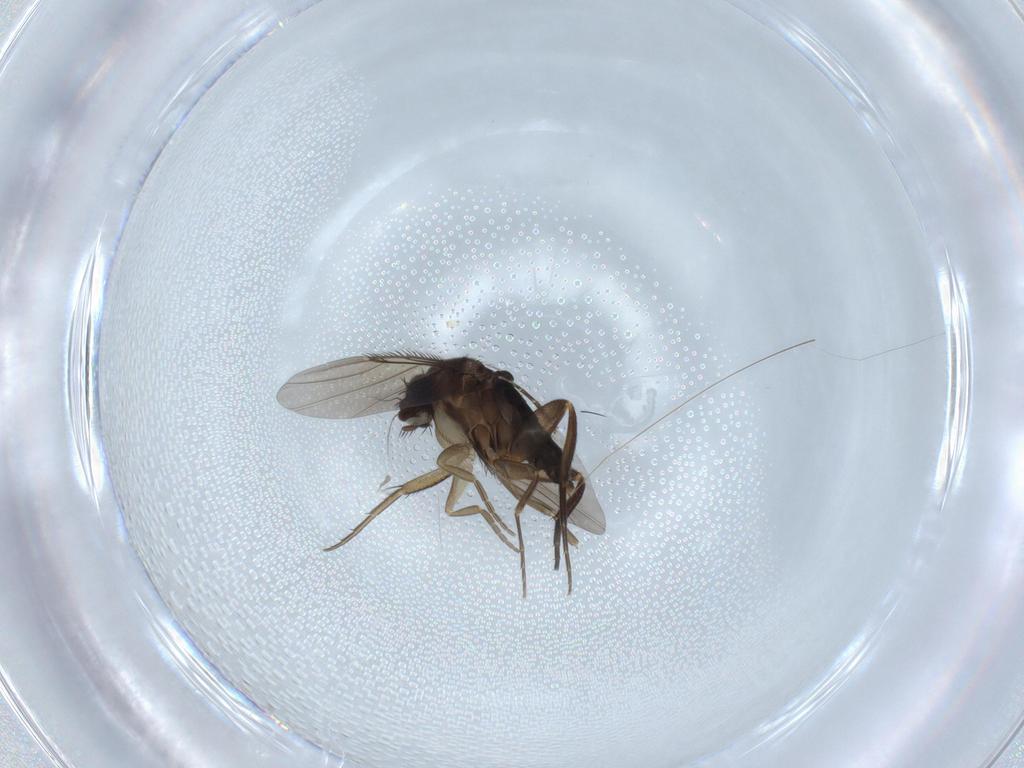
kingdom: Animalia
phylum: Arthropoda
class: Insecta
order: Diptera
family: Phoridae
